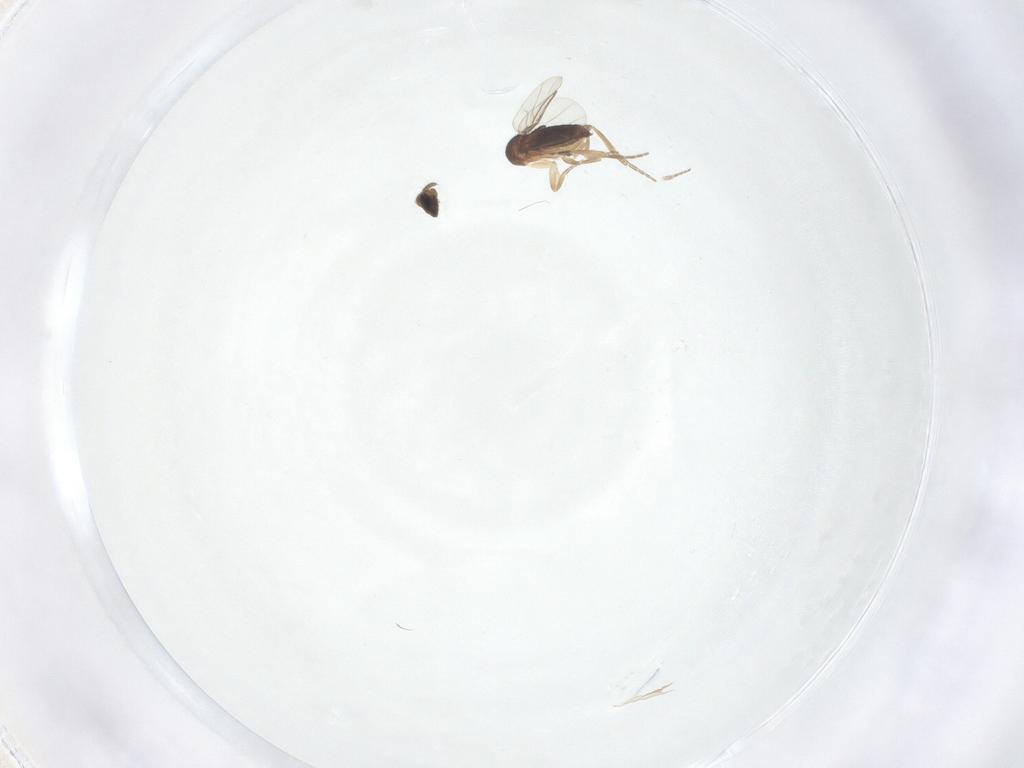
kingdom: Animalia
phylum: Arthropoda
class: Insecta
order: Diptera
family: Phoridae
